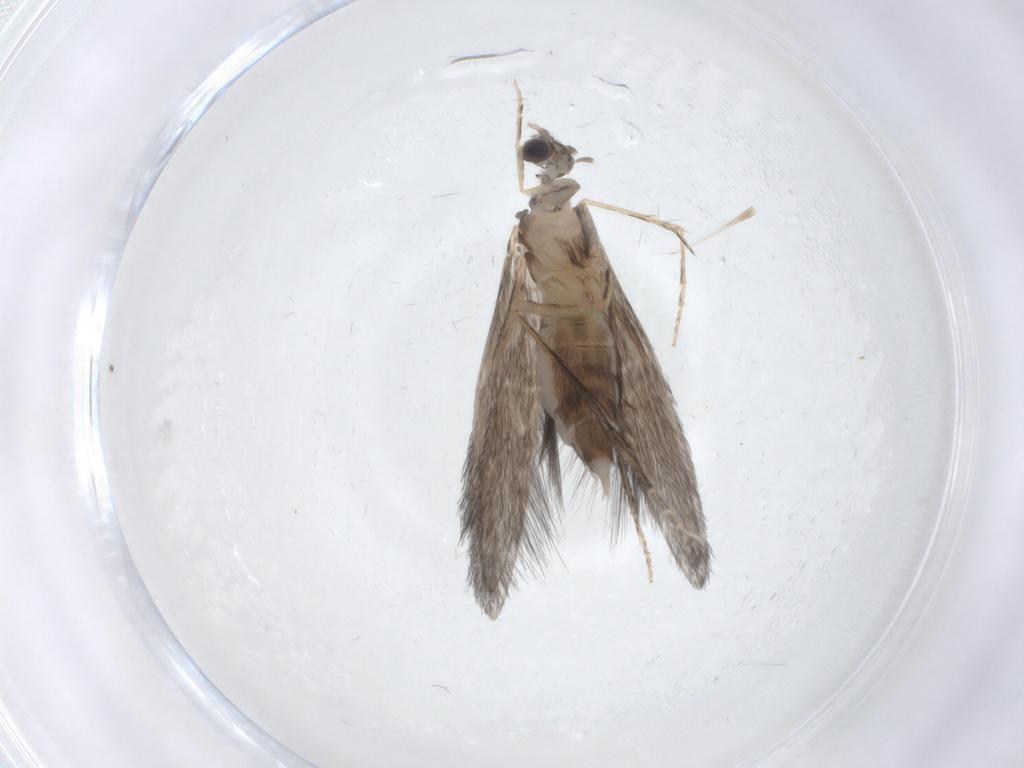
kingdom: Animalia
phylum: Arthropoda
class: Insecta
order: Trichoptera
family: Hydroptilidae
